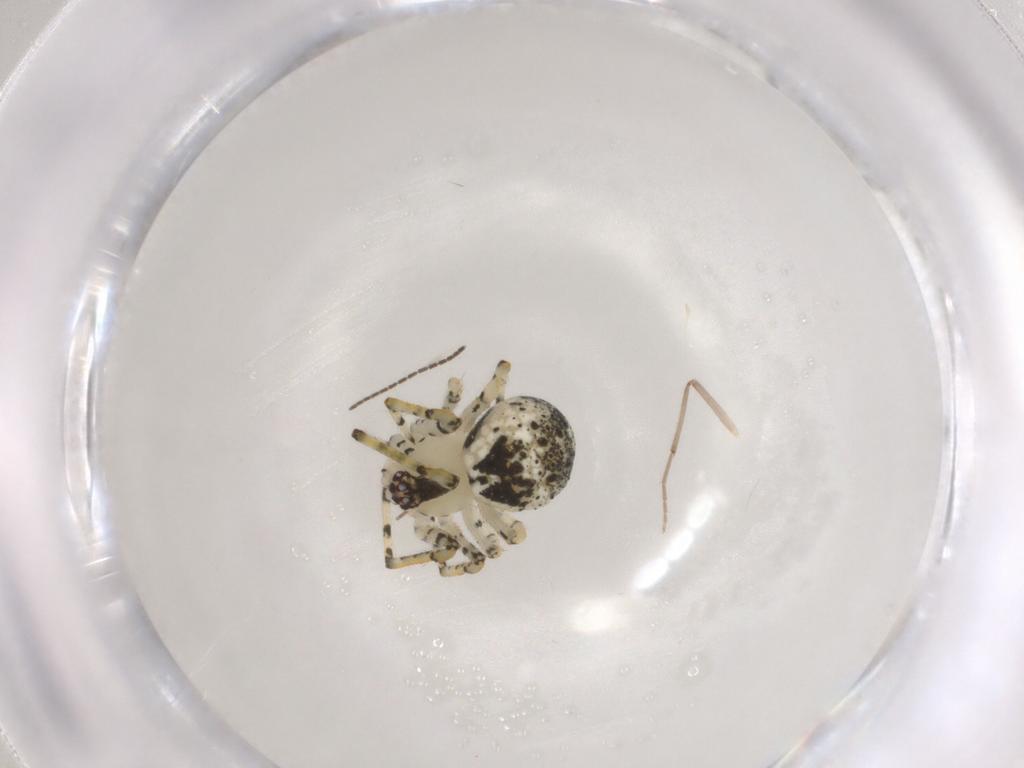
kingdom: Animalia
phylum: Arthropoda
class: Arachnida
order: Araneae
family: Theridiidae
